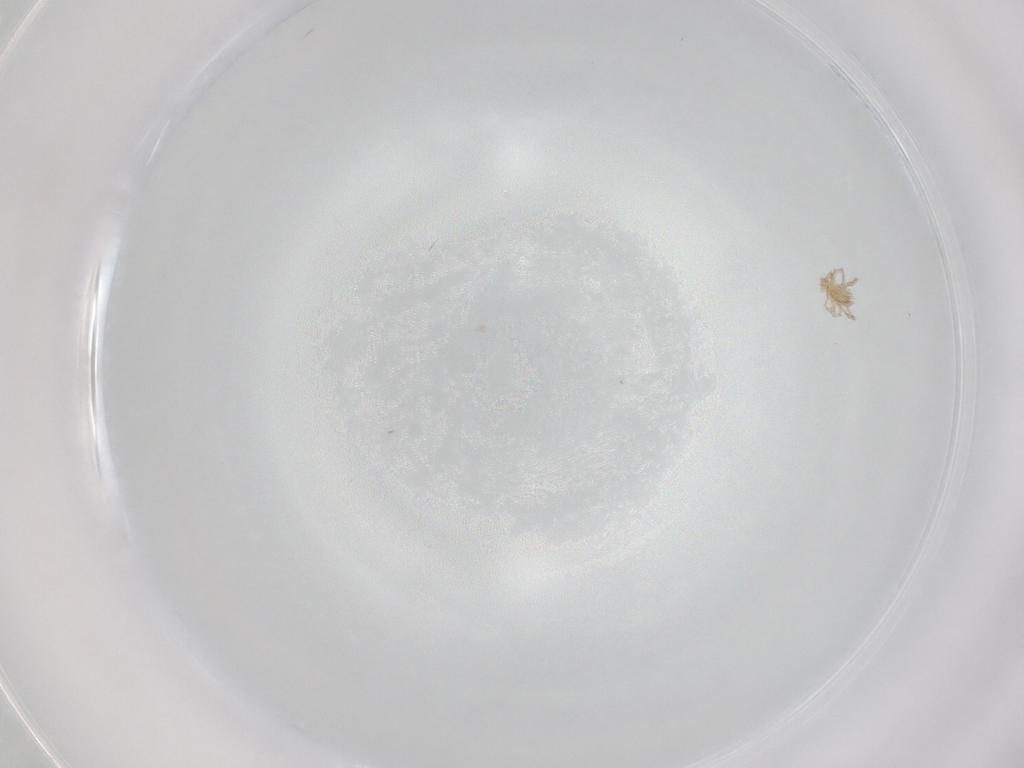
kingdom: Animalia
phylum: Arthropoda
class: Arachnida
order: Trombidiformes
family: Erythraeidae
